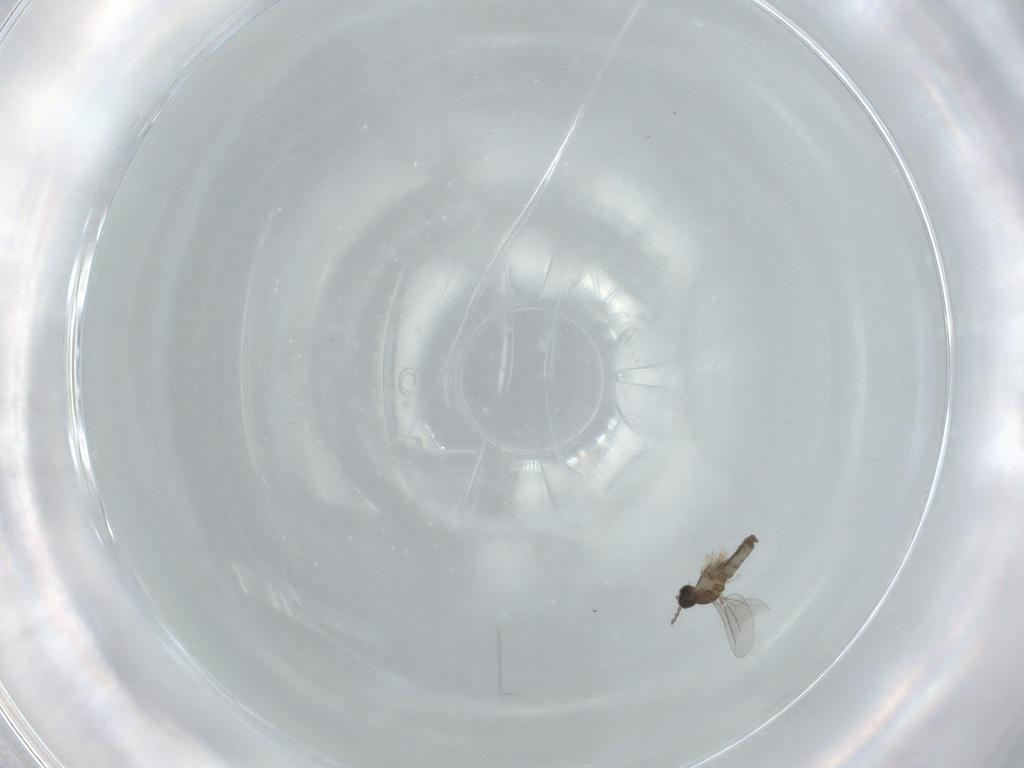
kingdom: Animalia
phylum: Arthropoda
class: Insecta
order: Diptera
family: Cecidomyiidae
